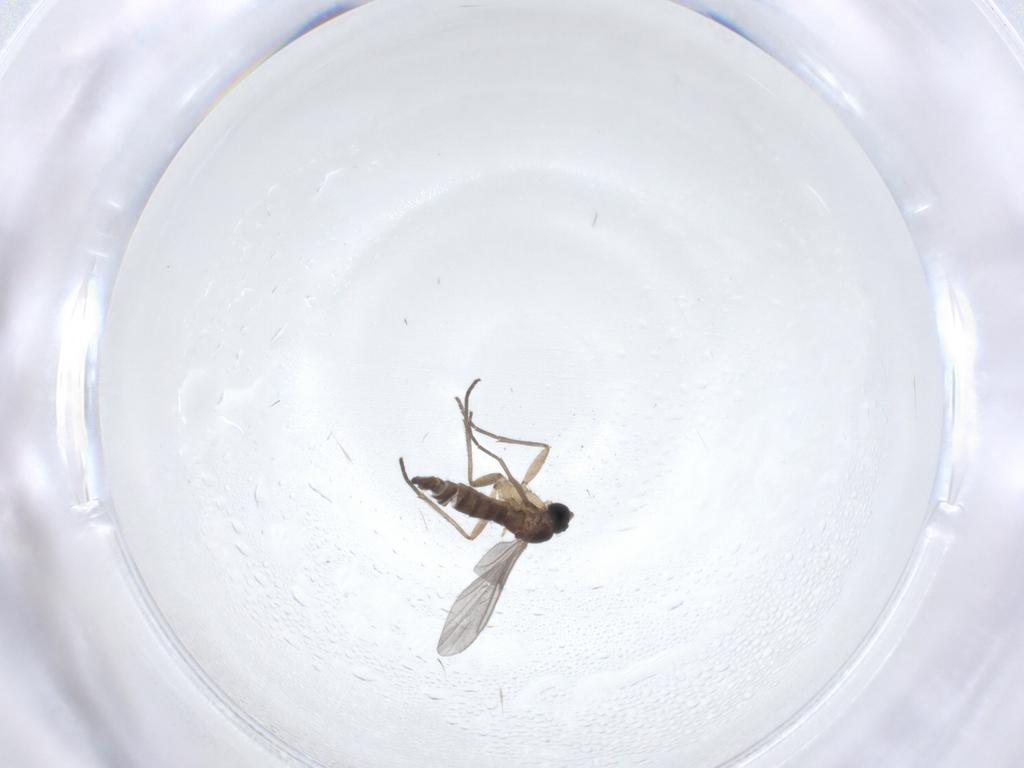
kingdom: Animalia
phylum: Arthropoda
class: Insecta
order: Diptera
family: Sciaridae
